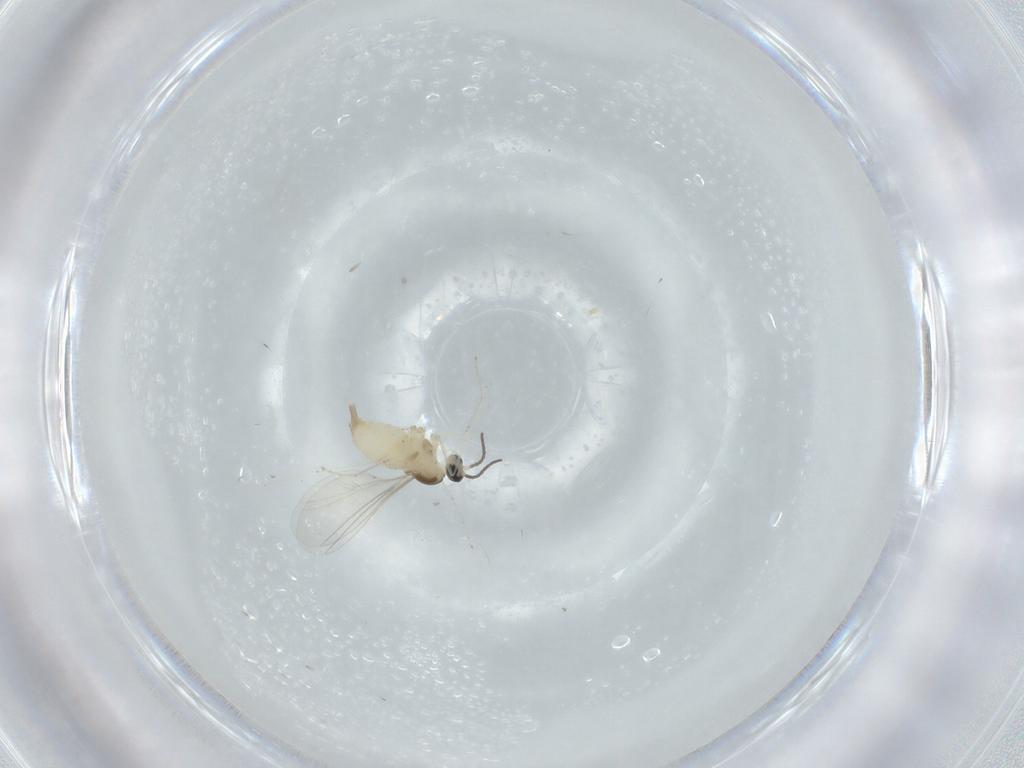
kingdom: Animalia
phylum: Arthropoda
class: Insecta
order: Diptera
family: Cecidomyiidae
